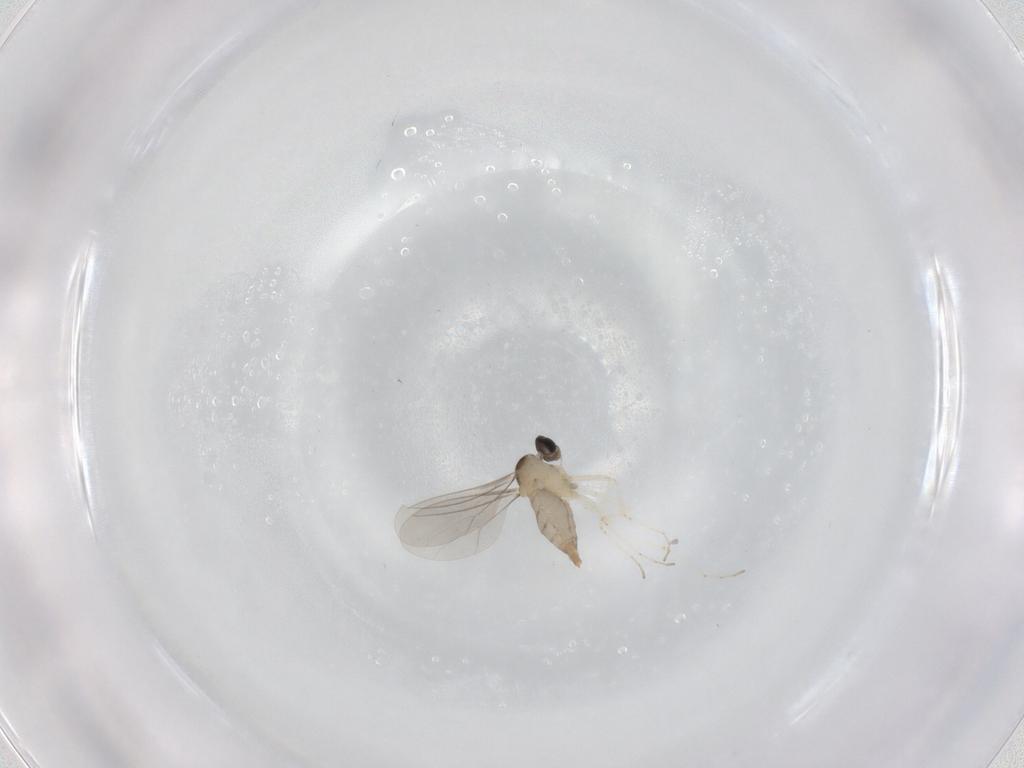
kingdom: Animalia
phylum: Arthropoda
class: Insecta
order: Diptera
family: Cecidomyiidae
